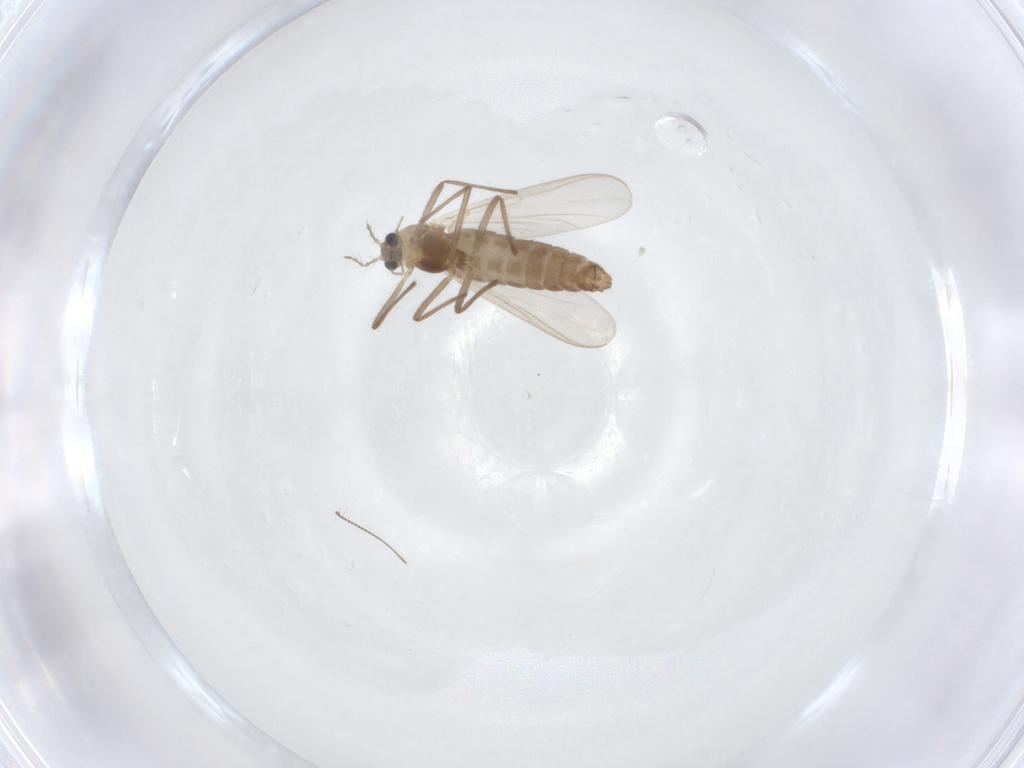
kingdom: Animalia
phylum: Arthropoda
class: Insecta
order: Diptera
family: Chironomidae
